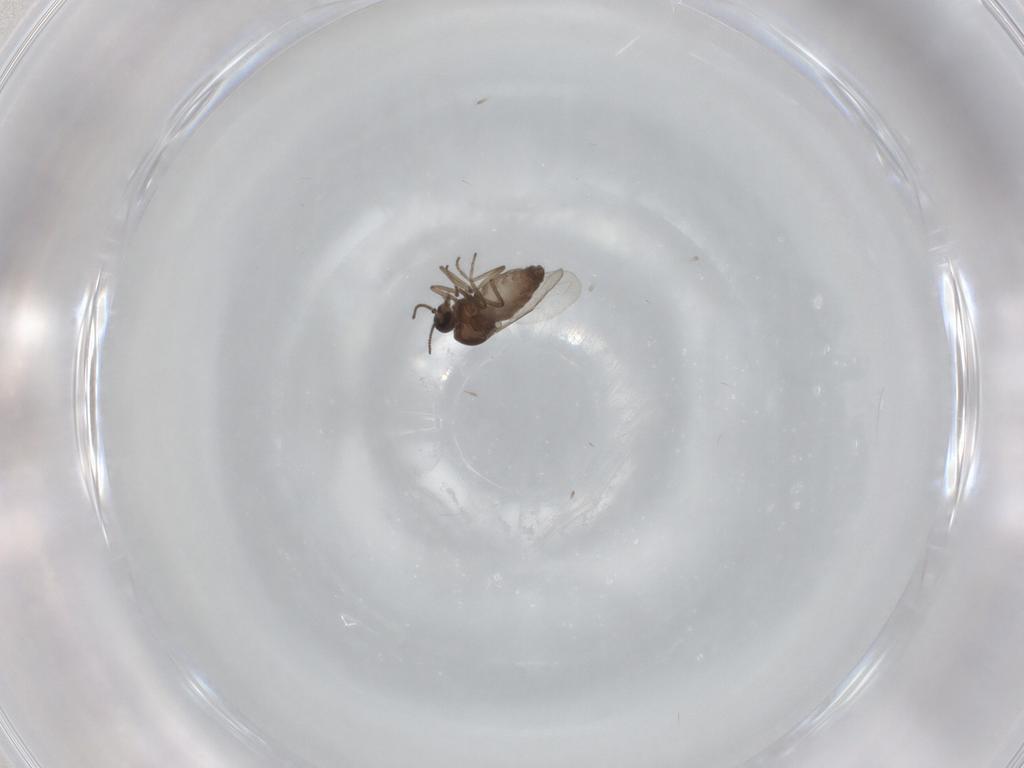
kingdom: Animalia
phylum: Arthropoda
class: Insecta
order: Diptera
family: Ceratopogonidae
